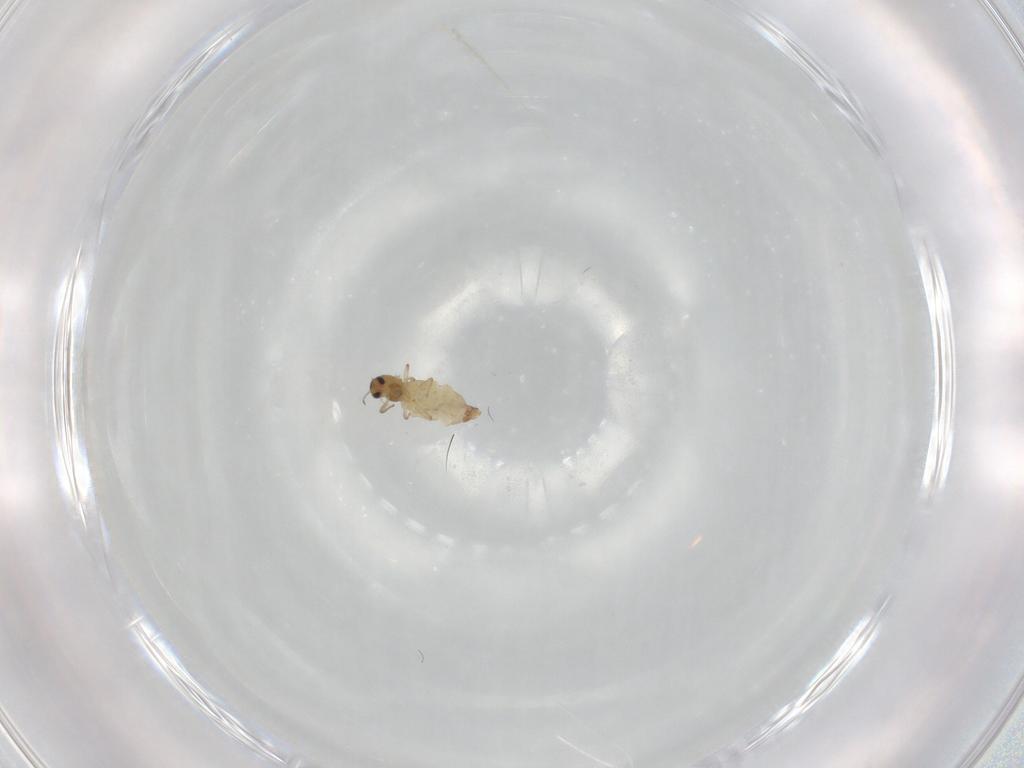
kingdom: Animalia
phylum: Arthropoda
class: Insecta
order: Diptera
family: Chironomidae
